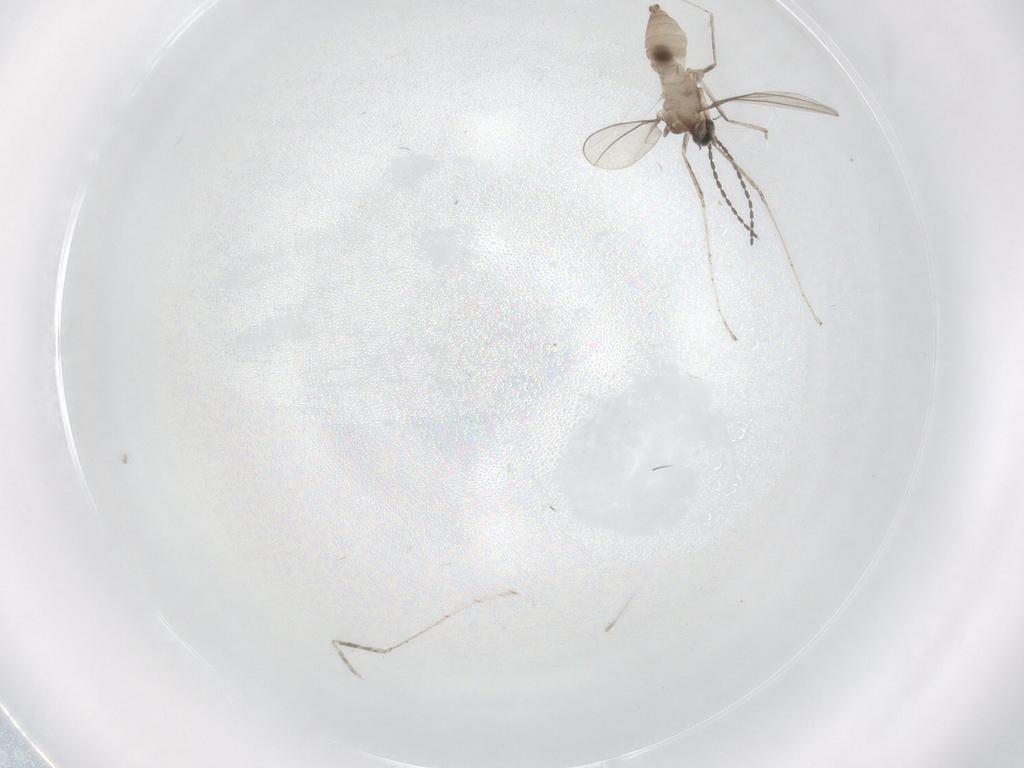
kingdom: Animalia
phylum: Arthropoda
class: Insecta
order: Diptera
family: Cecidomyiidae
